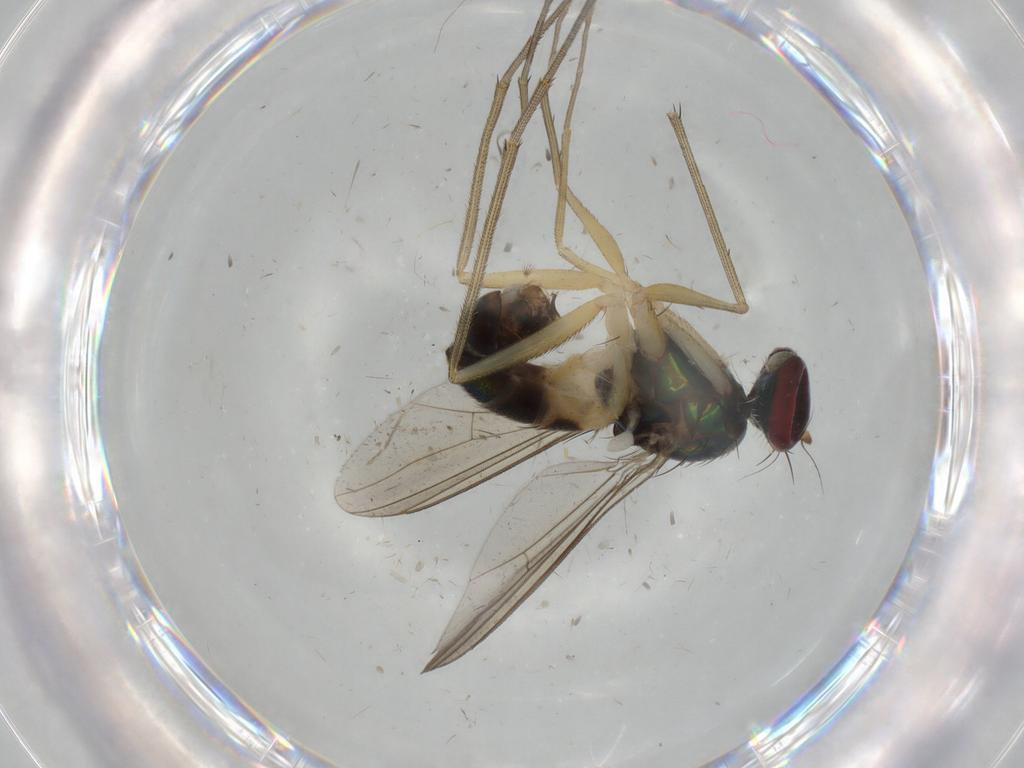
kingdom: Animalia
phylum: Arthropoda
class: Insecta
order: Diptera
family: Dolichopodidae
